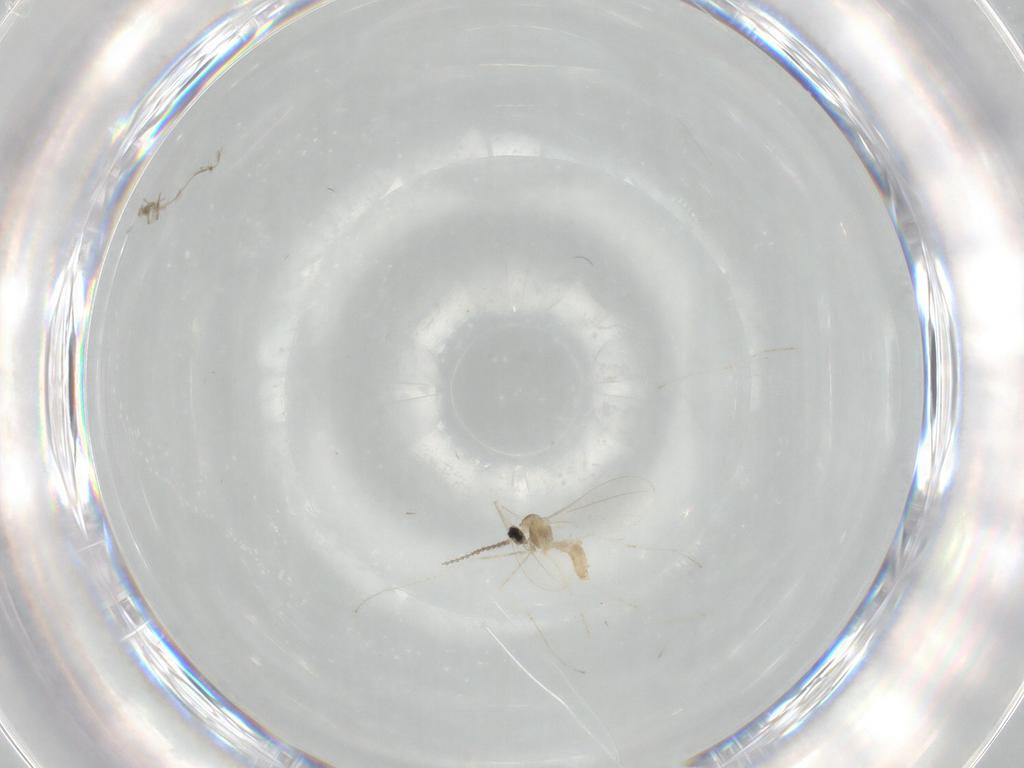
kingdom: Animalia
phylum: Arthropoda
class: Insecta
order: Diptera
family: Cecidomyiidae
